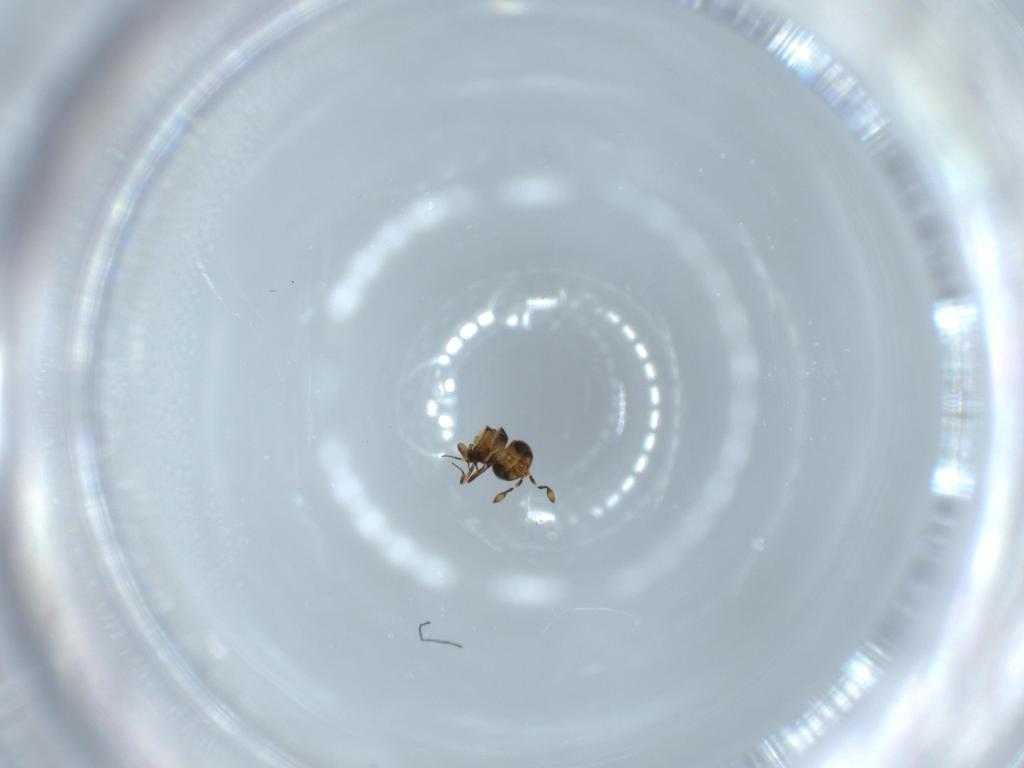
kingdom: Animalia
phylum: Arthropoda
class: Insecta
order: Hymenoptera
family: Scelionidae
